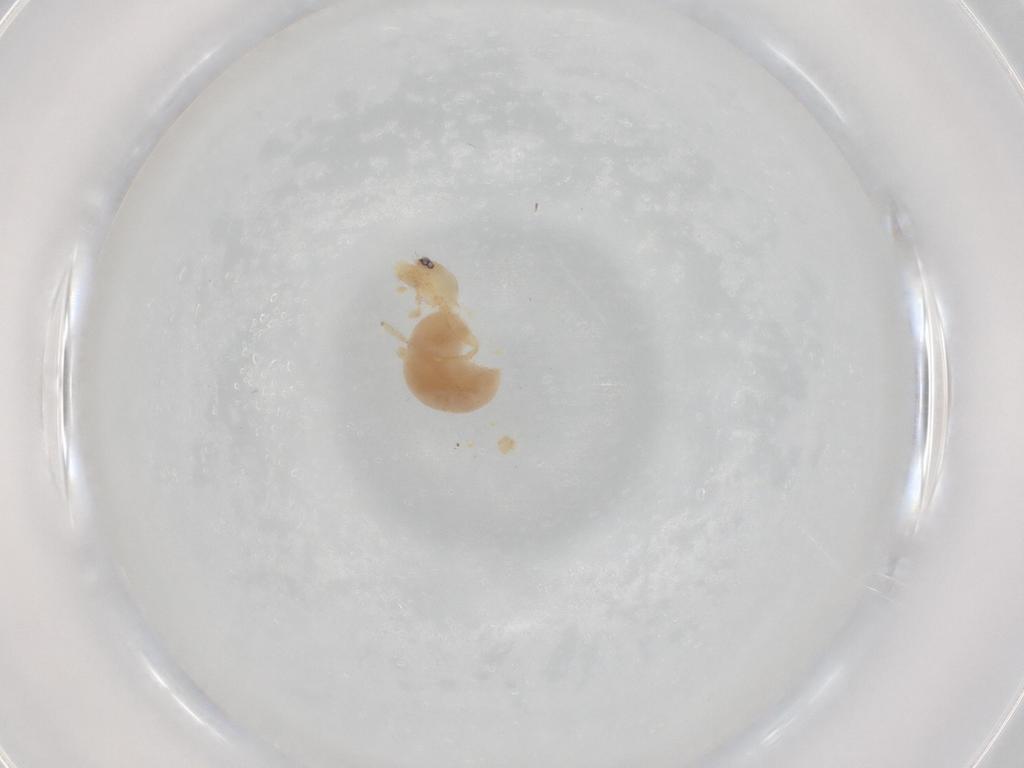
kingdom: Animalia
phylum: Arthropoda
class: Arachnida
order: Araneae
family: Oonopidae
